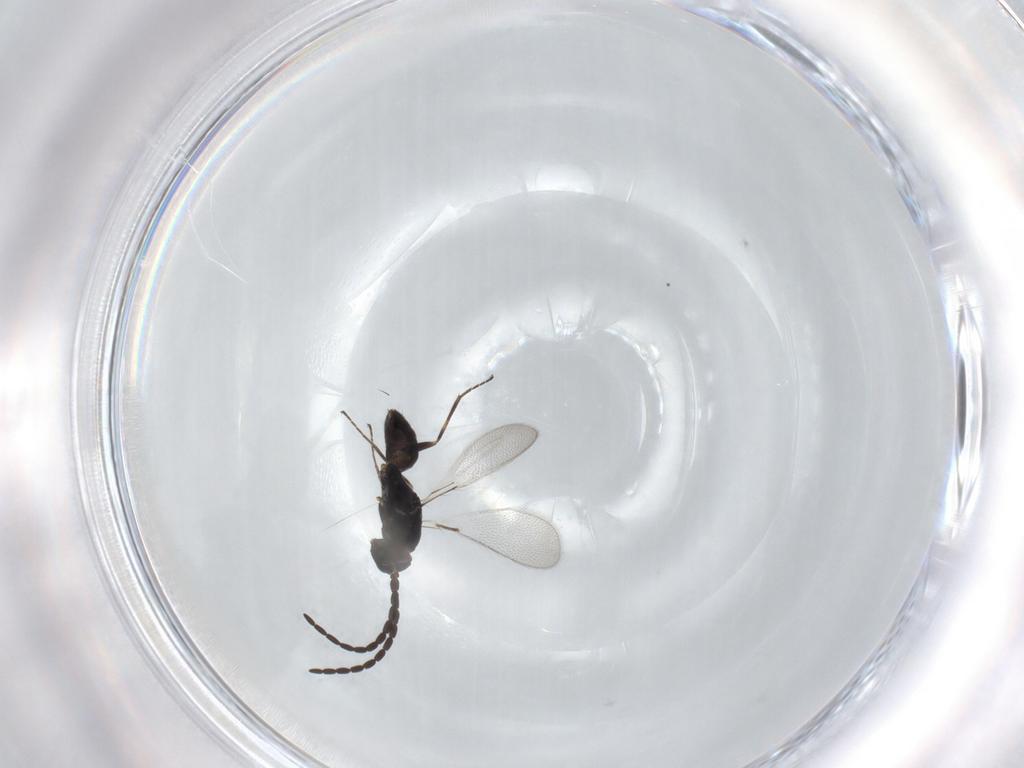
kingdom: Animalia
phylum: Arthropoda
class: Insecta
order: Hymenoptera
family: Mymaridae
